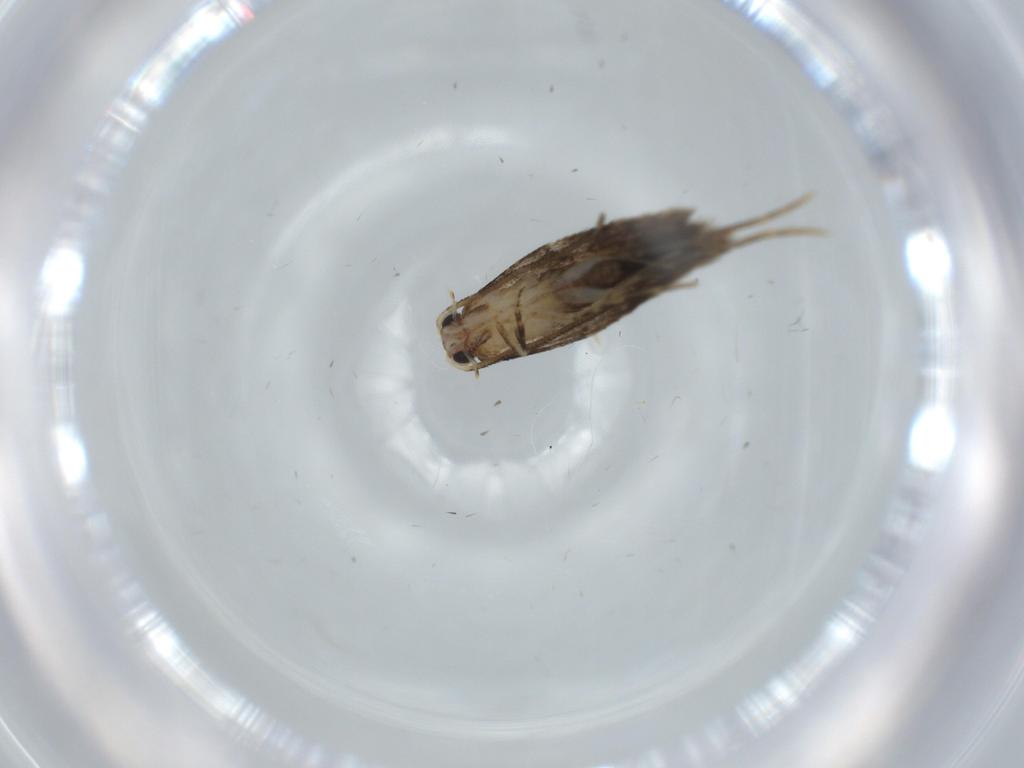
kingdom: Animalia
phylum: Arthropoda
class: Insecta
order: Lepidoptera
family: Tineidae
